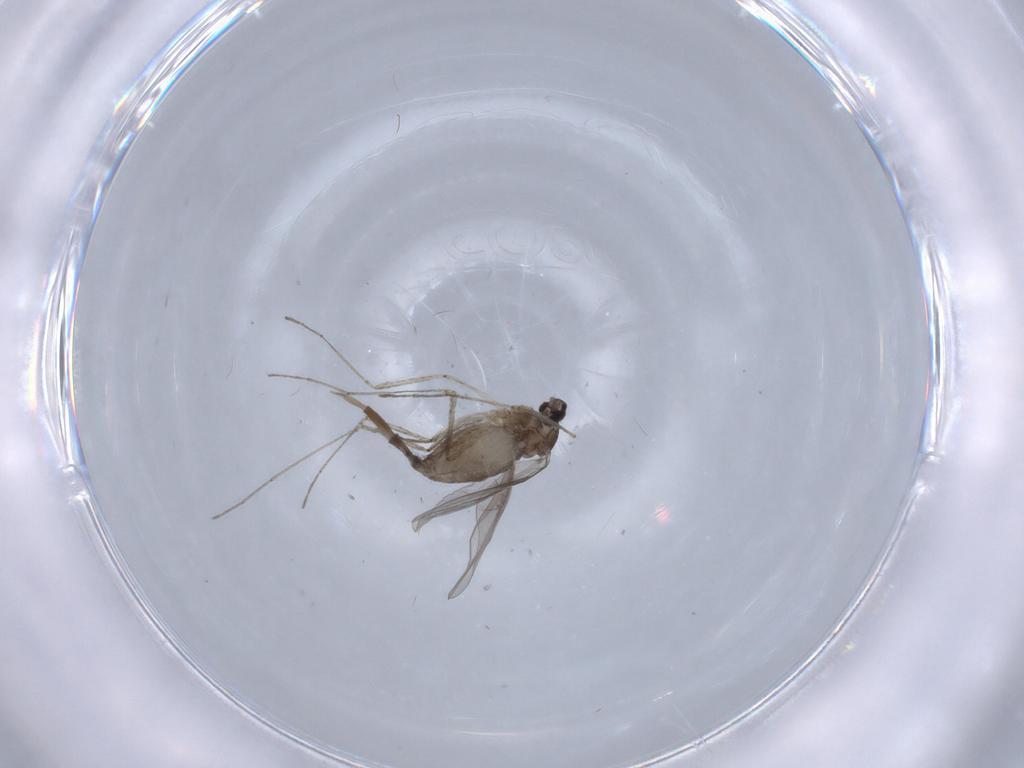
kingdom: Animalia
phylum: Arthropoda
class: Insecta
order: Diptera
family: Cecidomyiidae
